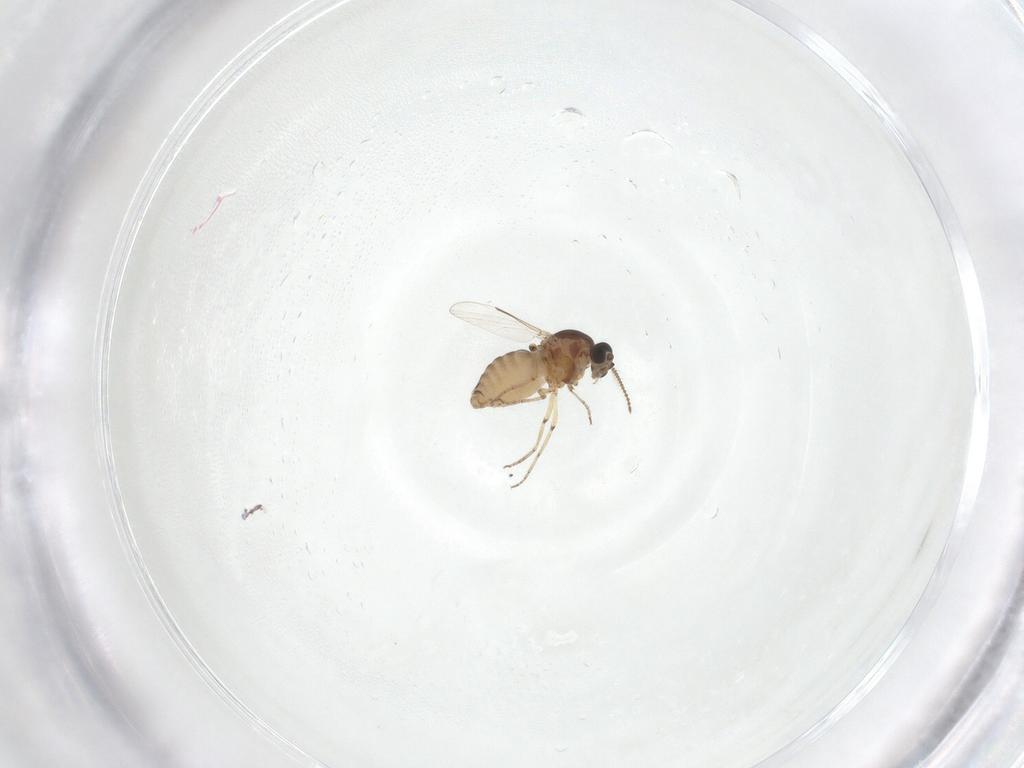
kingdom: Animalia
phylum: Arthropoda
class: Insecta
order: Diptera
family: Ceratopogonidae
